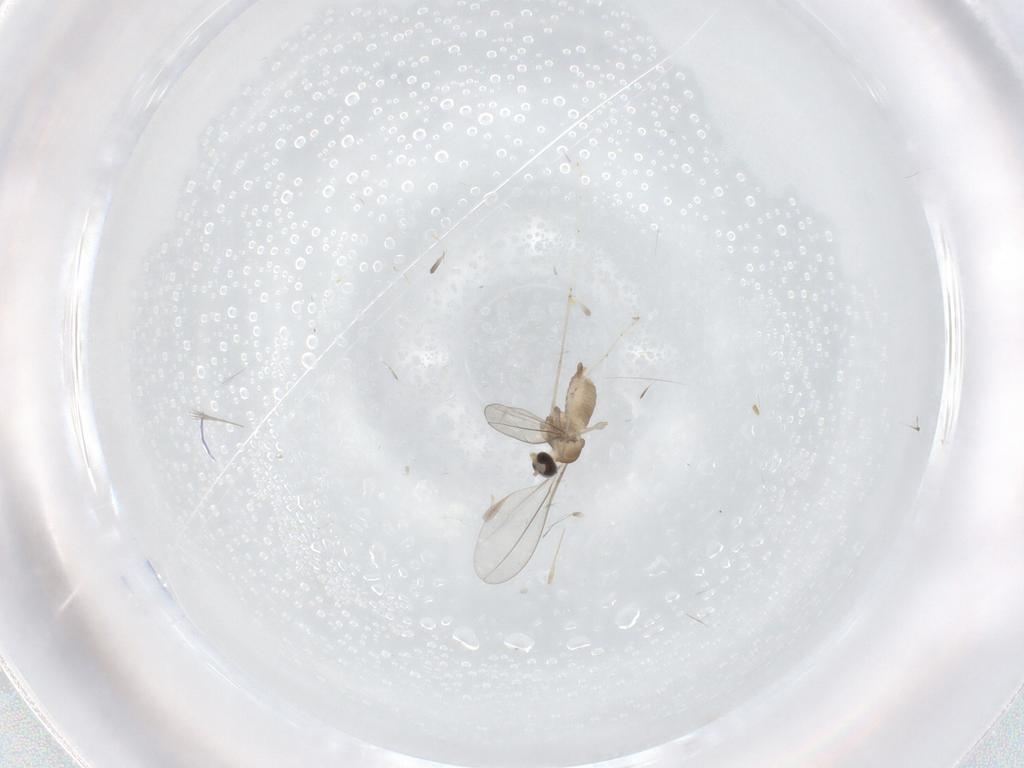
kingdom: Animalia
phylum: Arthropoda
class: Insecta
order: Diptera
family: Cecidomyiidae
